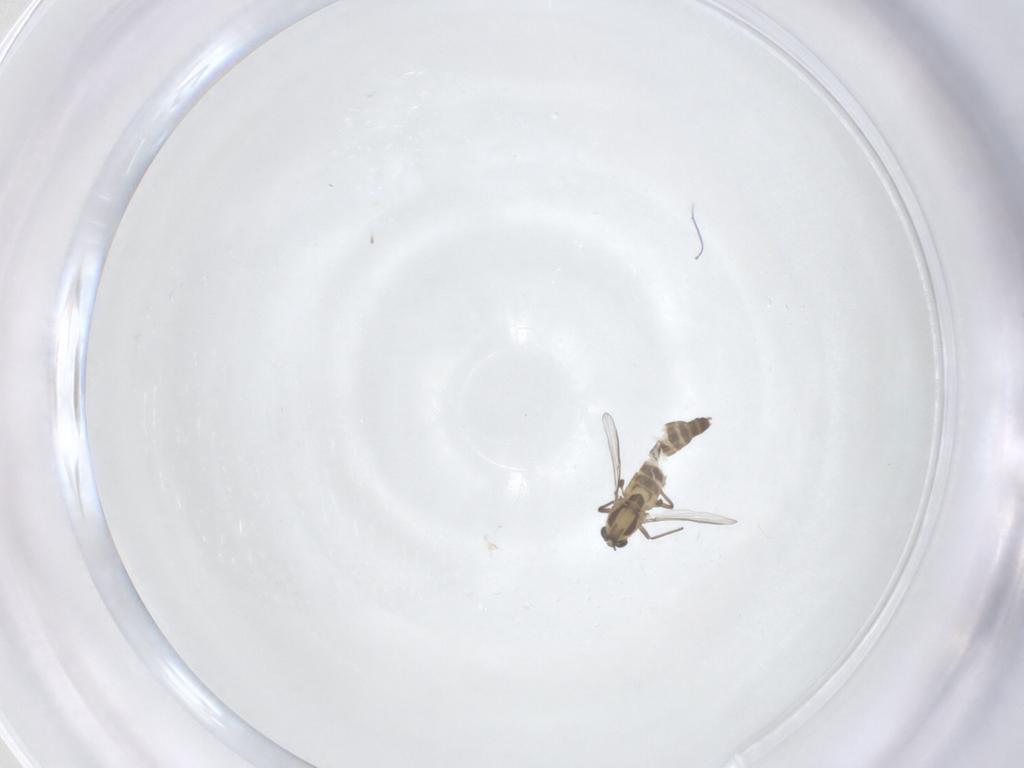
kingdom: Animalia
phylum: Arthropoda
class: Insecta
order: Diptera
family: Chironomidae
